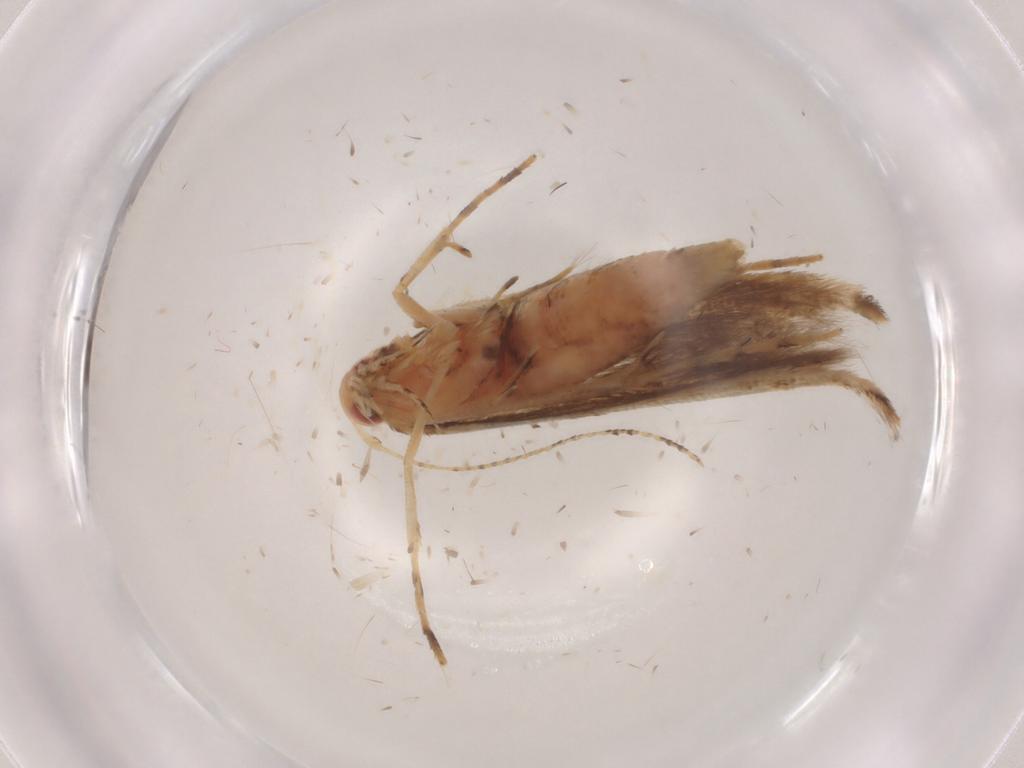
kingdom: Animalia
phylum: Arthropoda
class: Insecta
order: Lepidoptera
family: Cosmopterigidae
